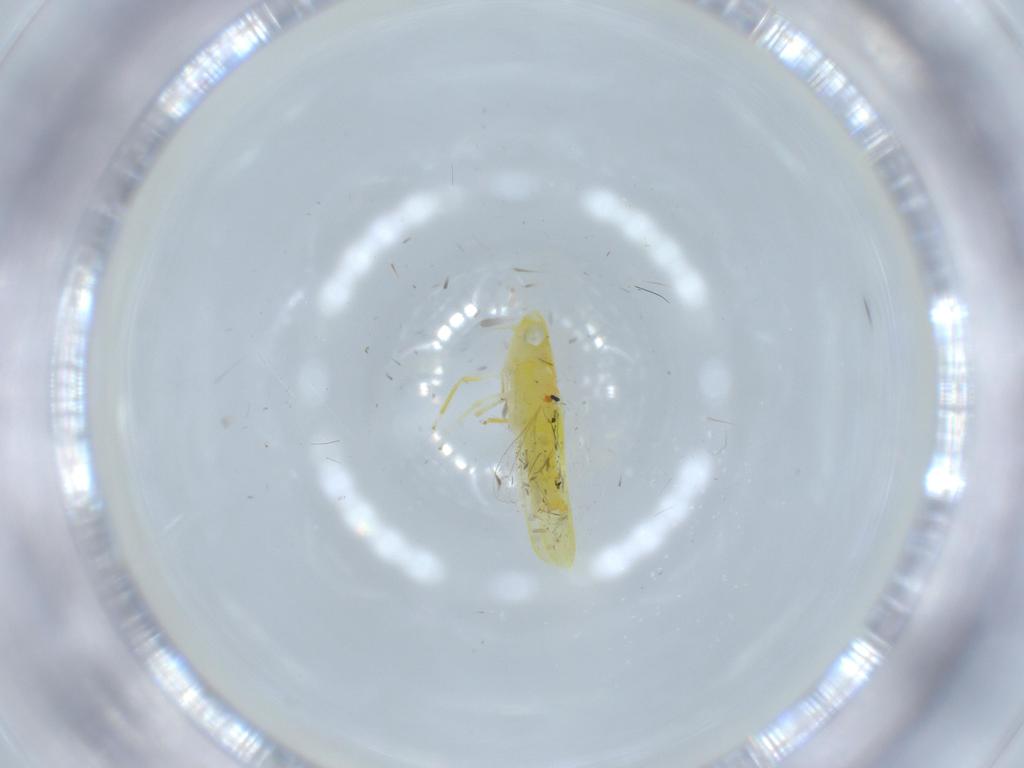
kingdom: Animalia
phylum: Arthropoda
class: Insecta
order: Hemiptera
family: Cicadellidae
